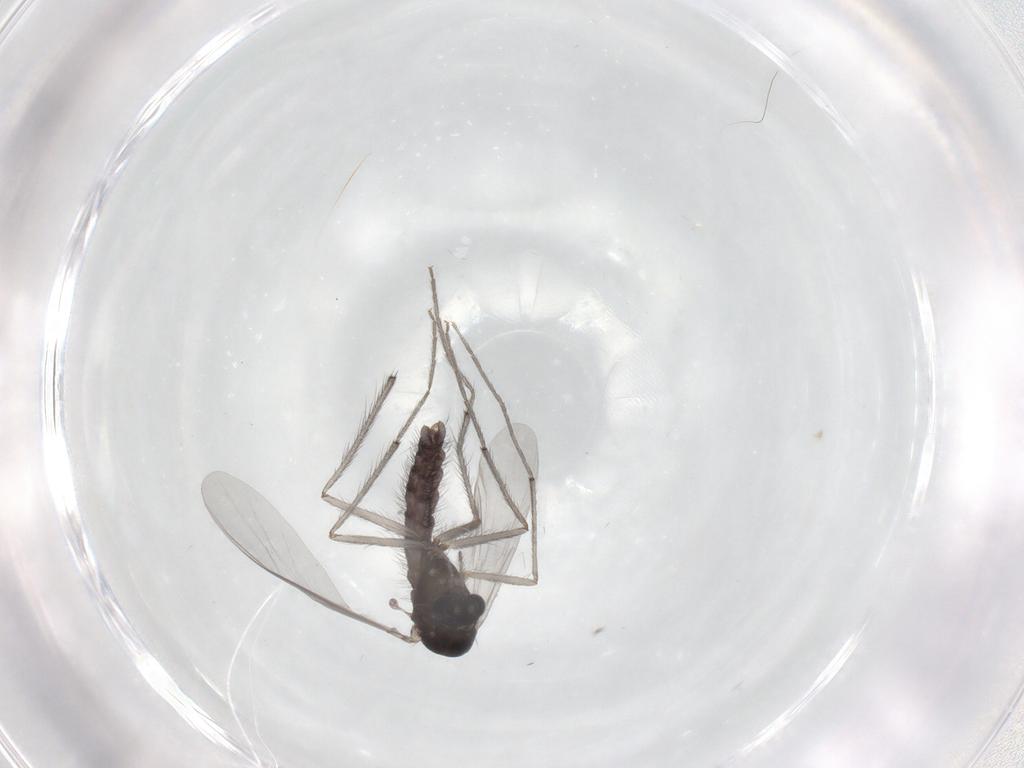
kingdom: Animalia
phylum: Arthropoda
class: Insecta
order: Diptera
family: Chironomidae
